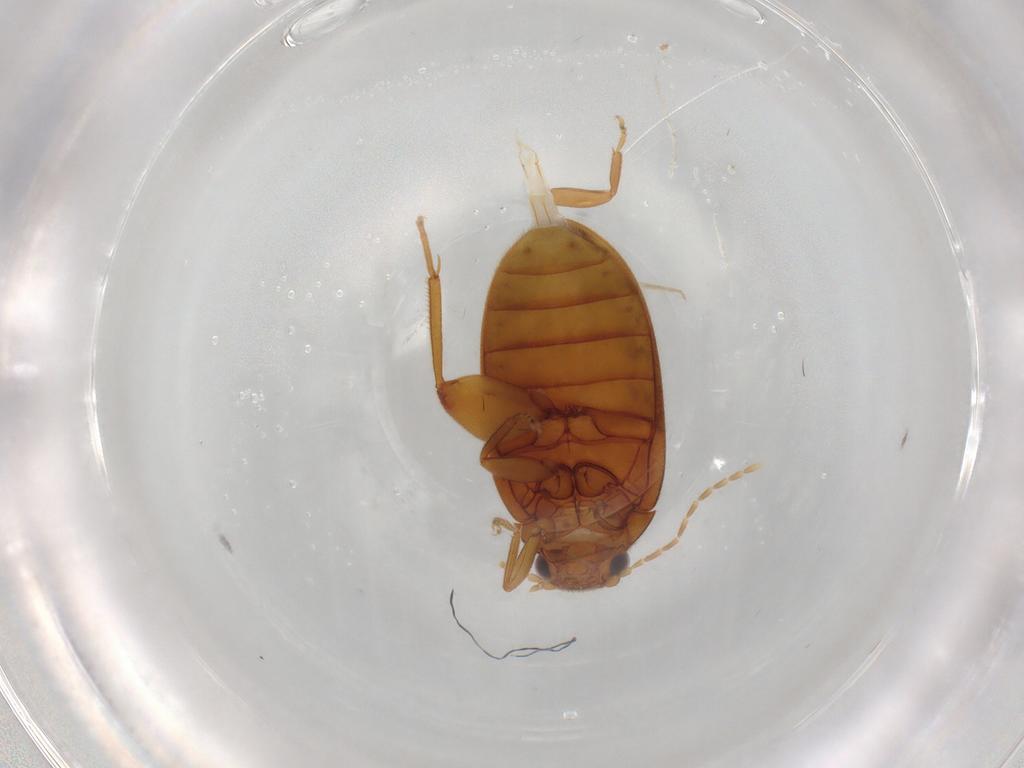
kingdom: Animalia
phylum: Arthropoda
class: Insecta
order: Coleoptera
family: Scirtidae
